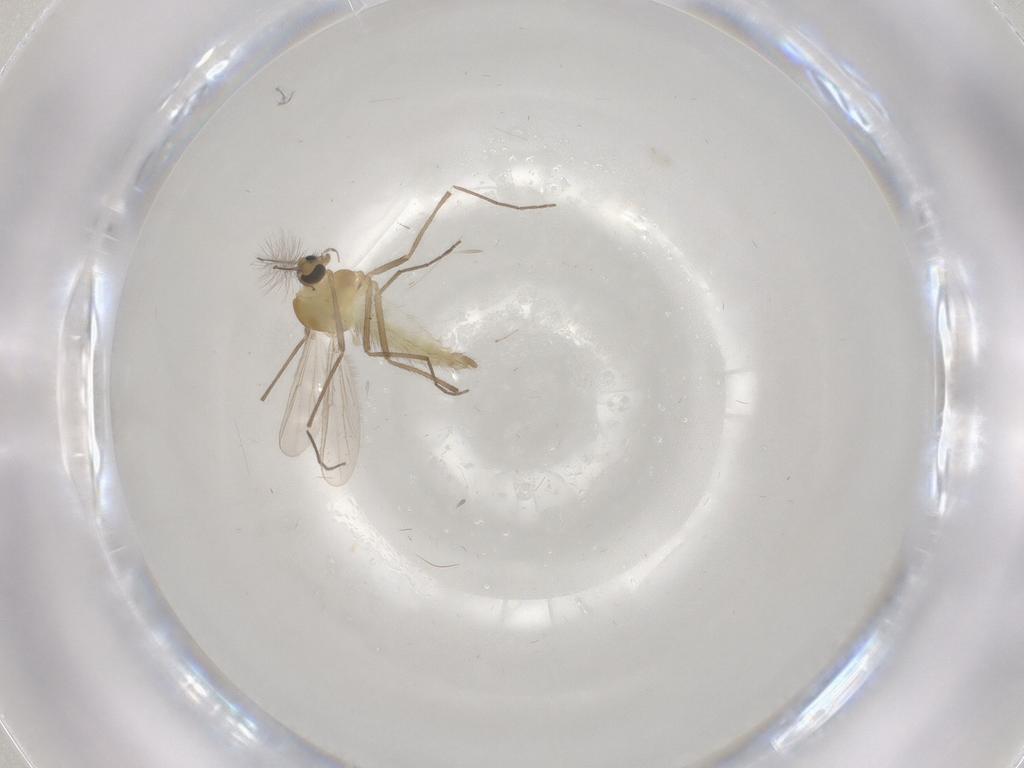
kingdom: Animalia
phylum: Arthropoda
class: Insecta
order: Diptera
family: Chironomidae
